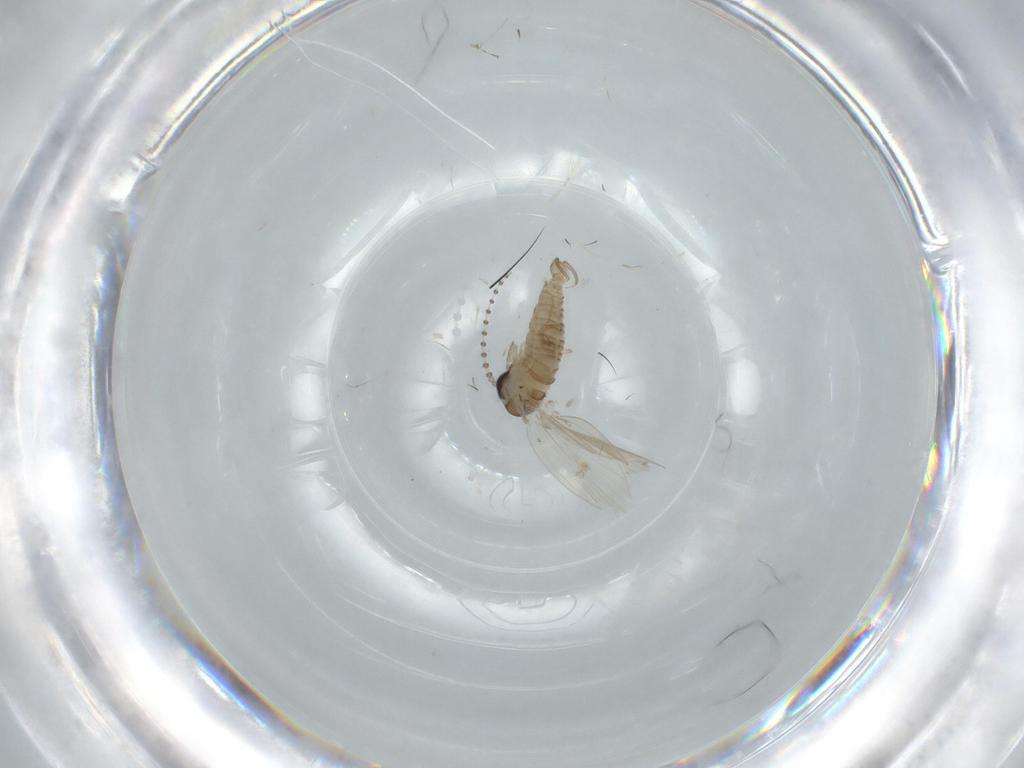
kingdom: Animalia
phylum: Arthropoda
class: Insecta
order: Diptera
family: Psychodidae
